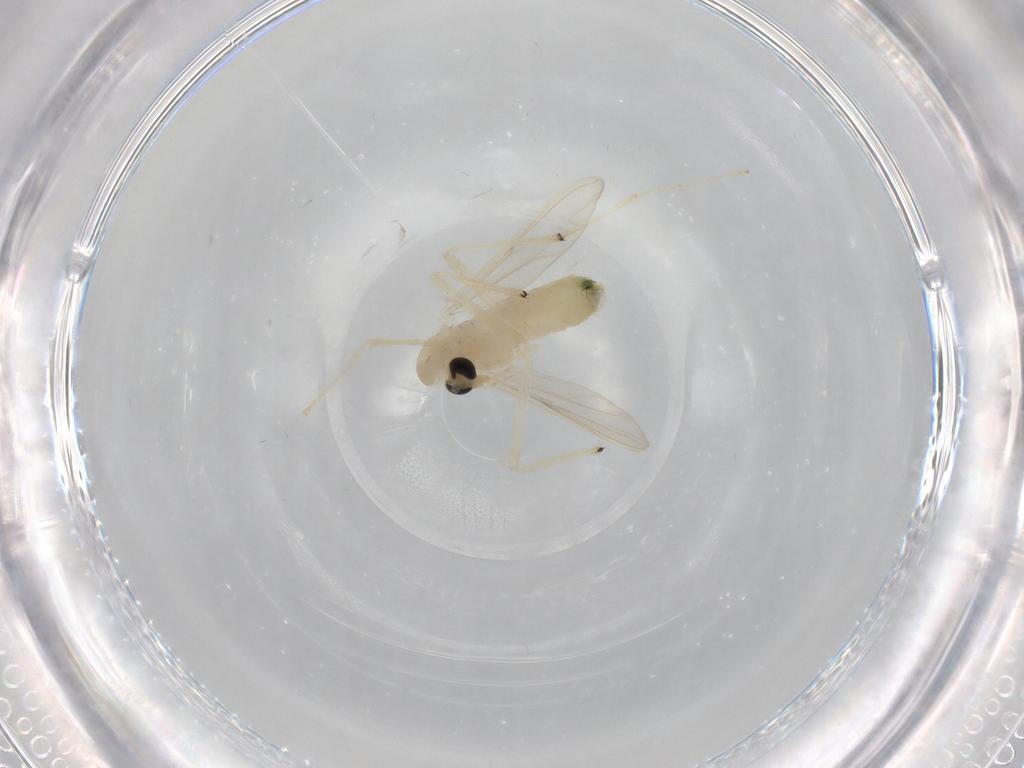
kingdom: Animalia
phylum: Arthropoda
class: Insecta
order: Diptera
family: Chironomidae
